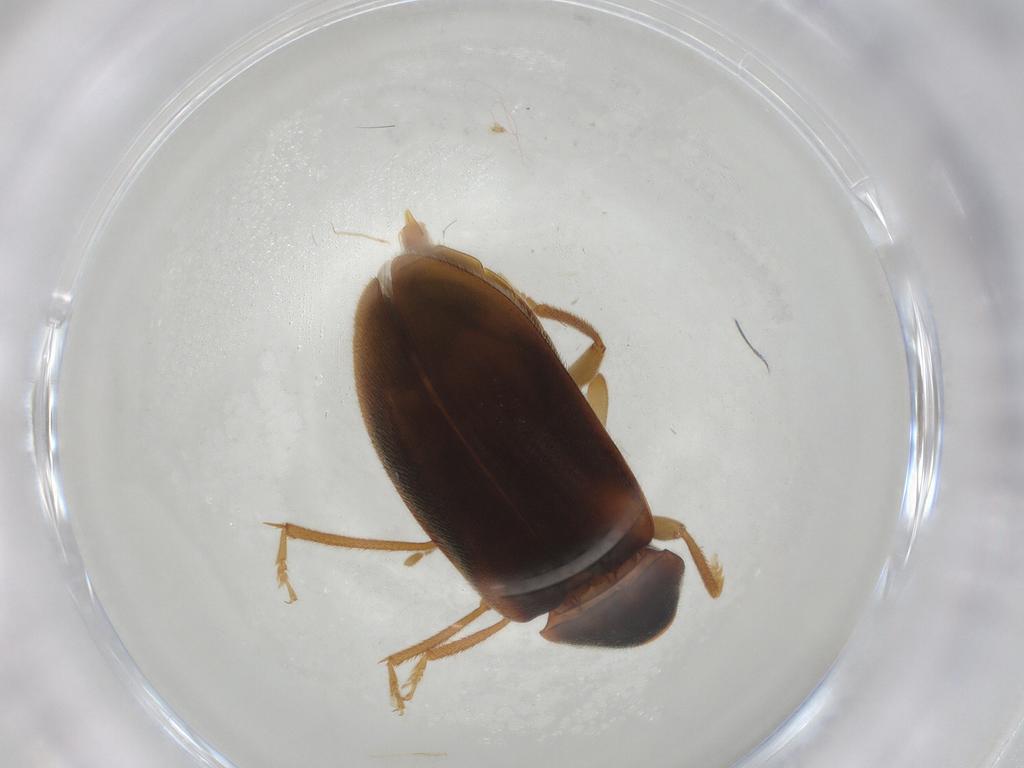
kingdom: Animalia
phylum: Arthropoda
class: Insecta
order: Coleoptera
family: Ptilodactylidae
